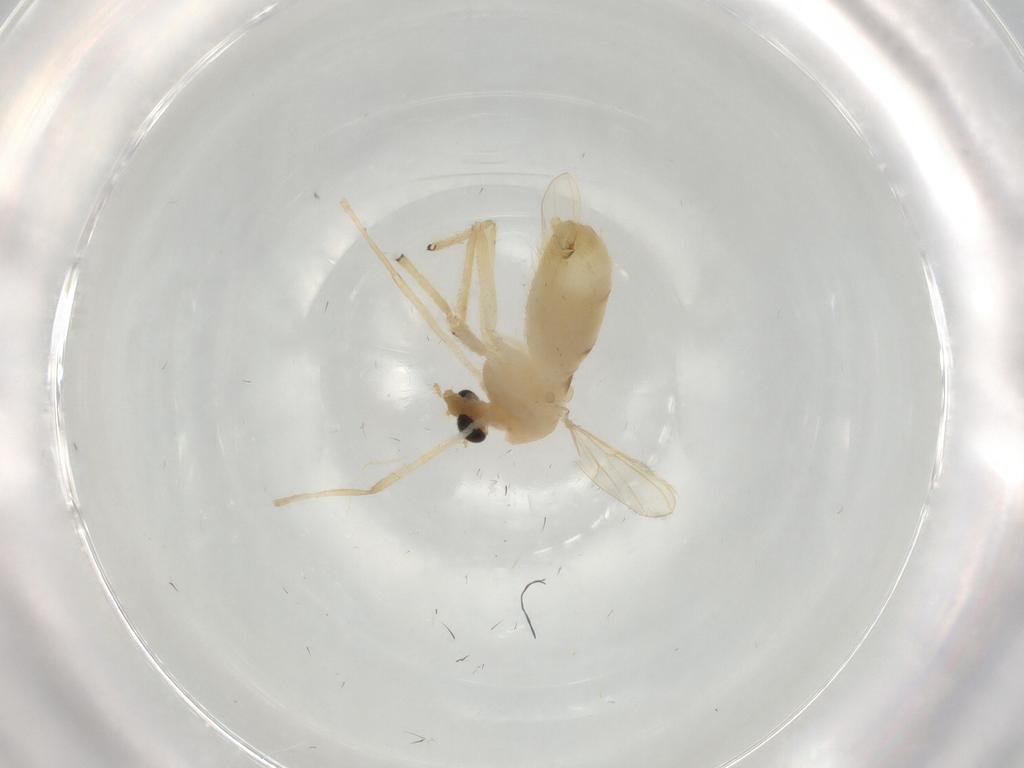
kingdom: Animalia
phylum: Arthropoda
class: Insecta
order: Diptera
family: Chironomidae
